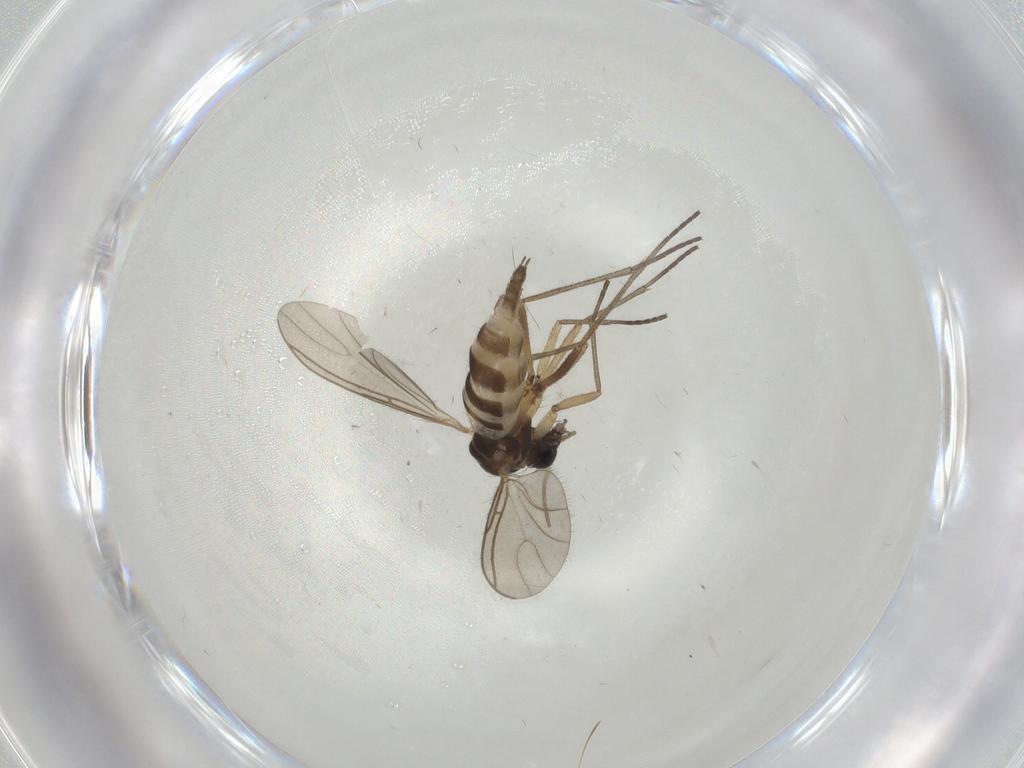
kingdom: Animalia
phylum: Arthropoda
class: Insecta
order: Diptera
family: Sciaridae
